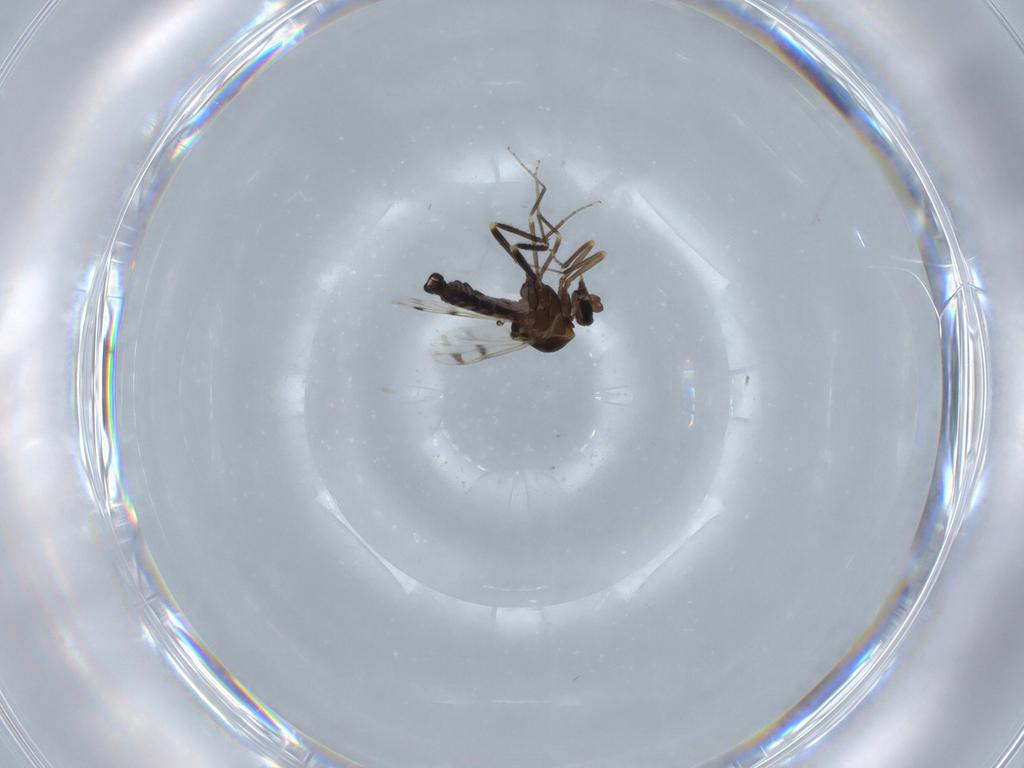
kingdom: Animalia
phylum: Arthropoda
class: Insecta
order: Diptera
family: Ceratopogonidae
